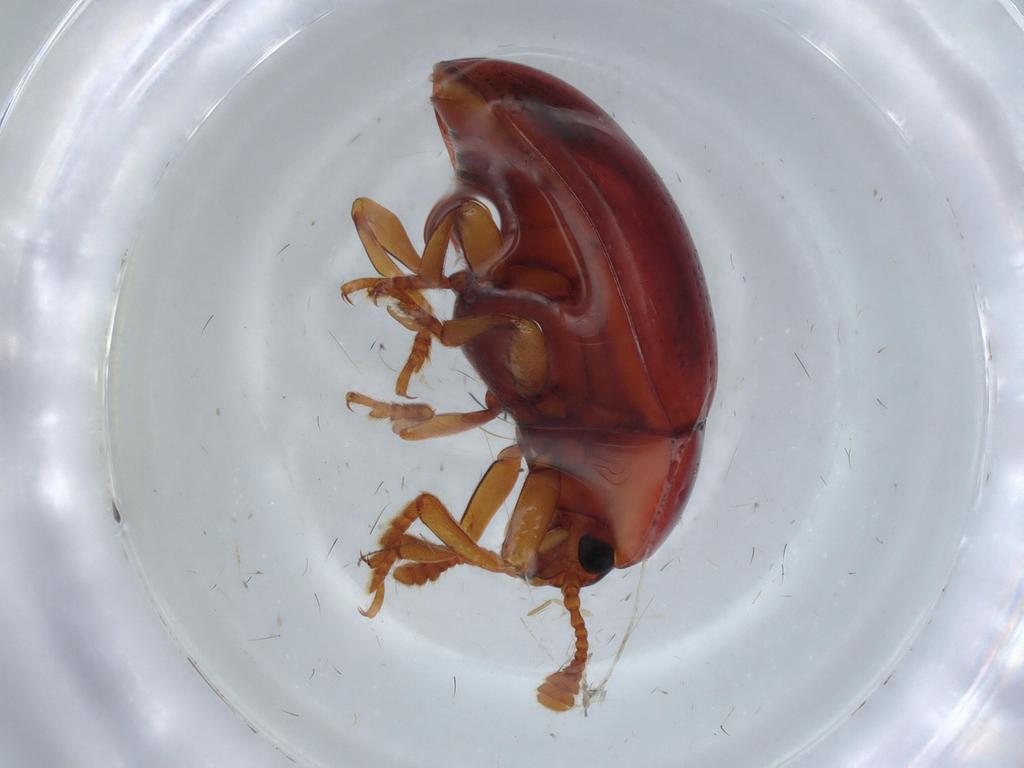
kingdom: Animalia
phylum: Arthropoda
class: Insecta
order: Coleoptera
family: Erotylidae
